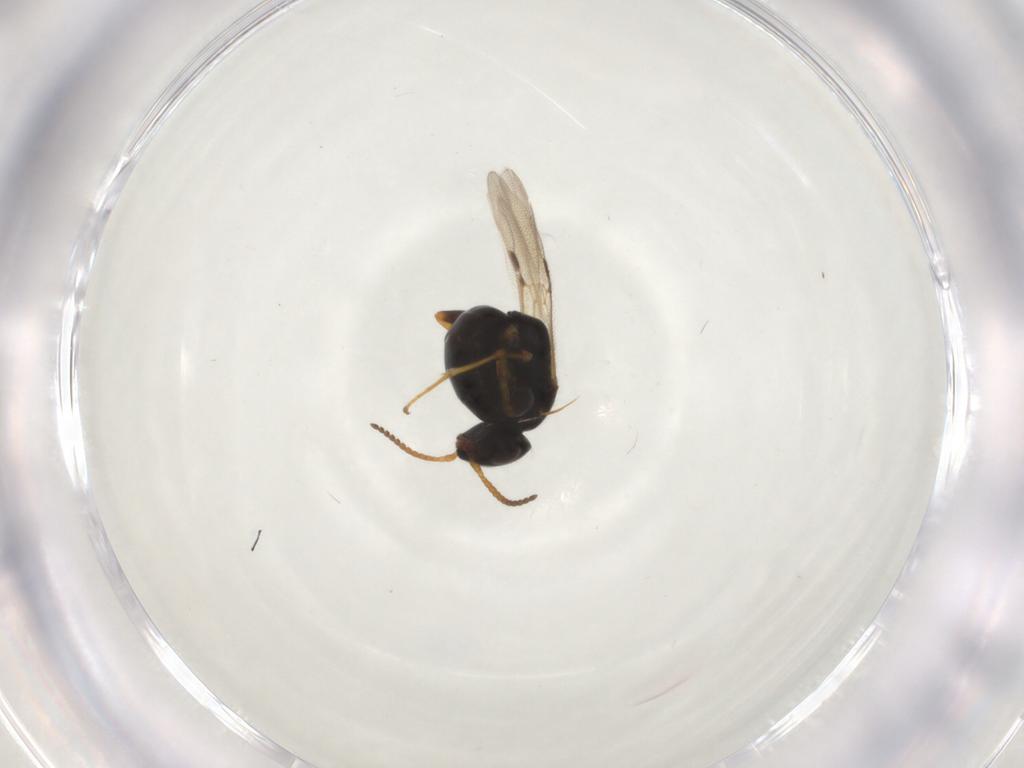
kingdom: Animalia
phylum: Arthropoda
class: Insecta
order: Hymenoptera
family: Bethylidae
